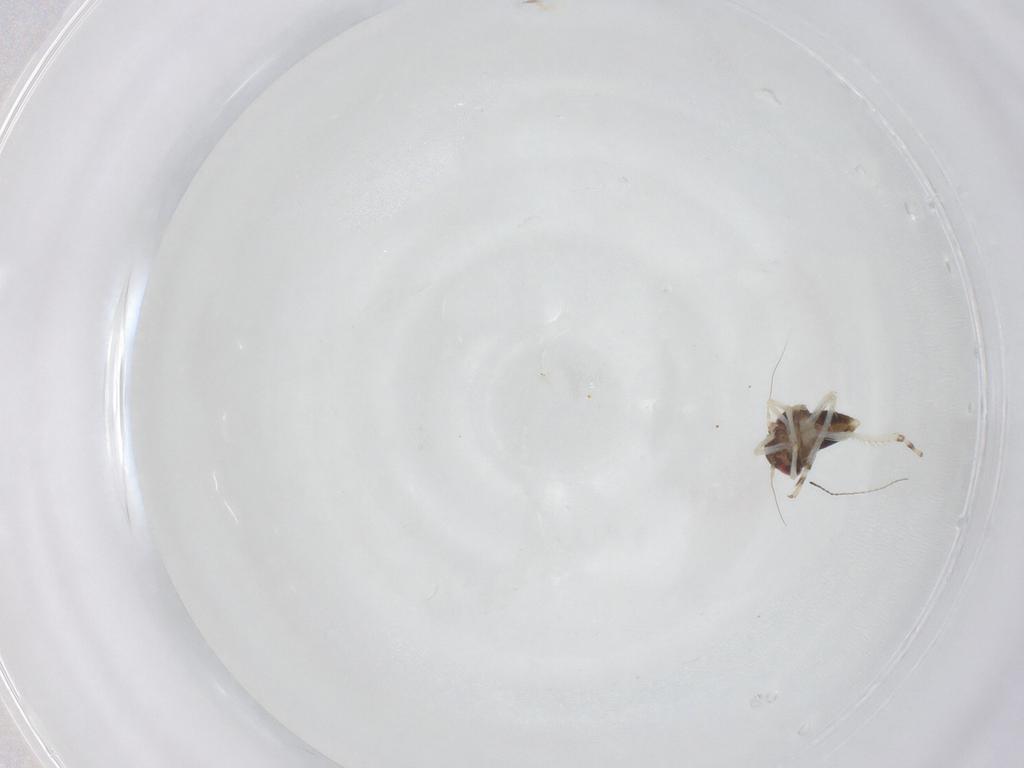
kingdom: Animalia
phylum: Arthropoda
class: Insecta
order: Hemiptera
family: Cicadellidae
